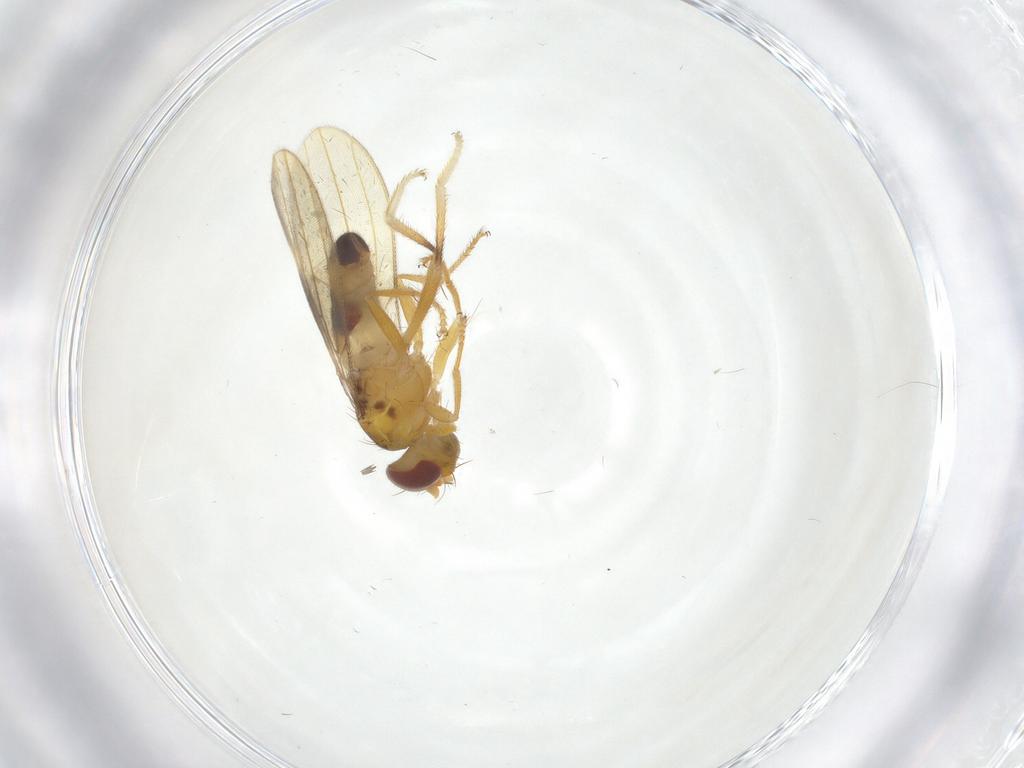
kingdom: Animalia
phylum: Arthropoda
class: Insecta
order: Diptera
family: Periscelididae
